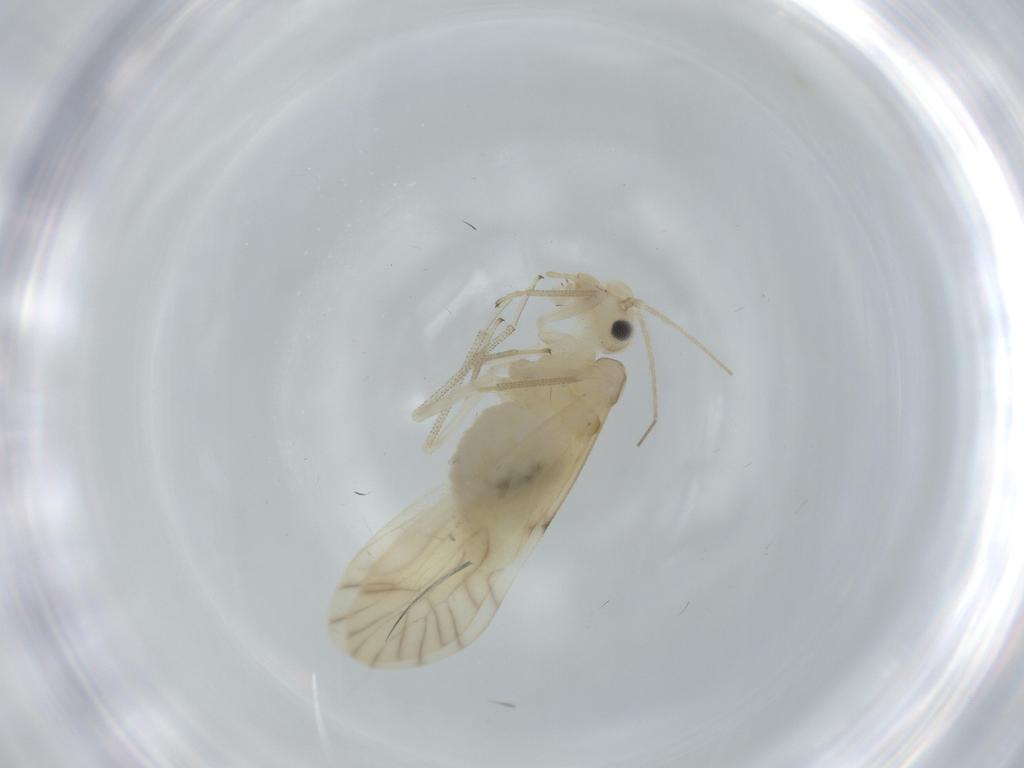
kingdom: Animalia
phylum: Arthropoda
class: Insecta
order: Psocodea
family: Caeciliusidae
